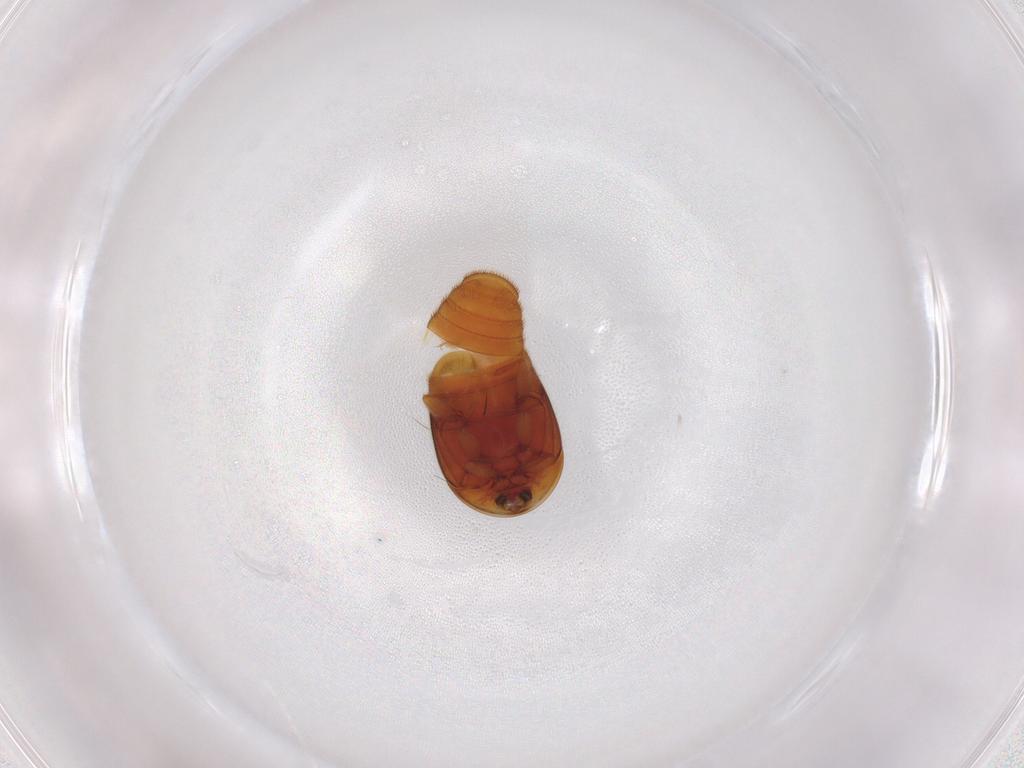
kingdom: Animalia
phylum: Arthropoda
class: Insecta
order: Coleoptera
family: Corylophidae
